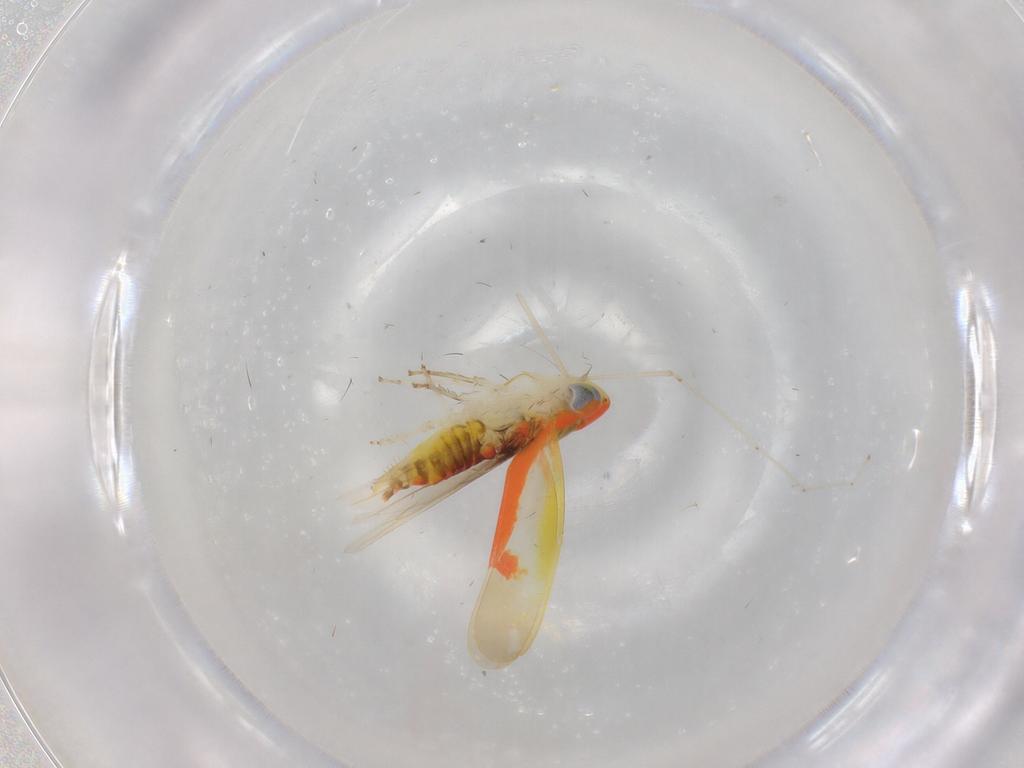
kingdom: Animalia
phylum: Arthropoda
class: Insecta
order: Hemiptera
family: Cicadellidae
